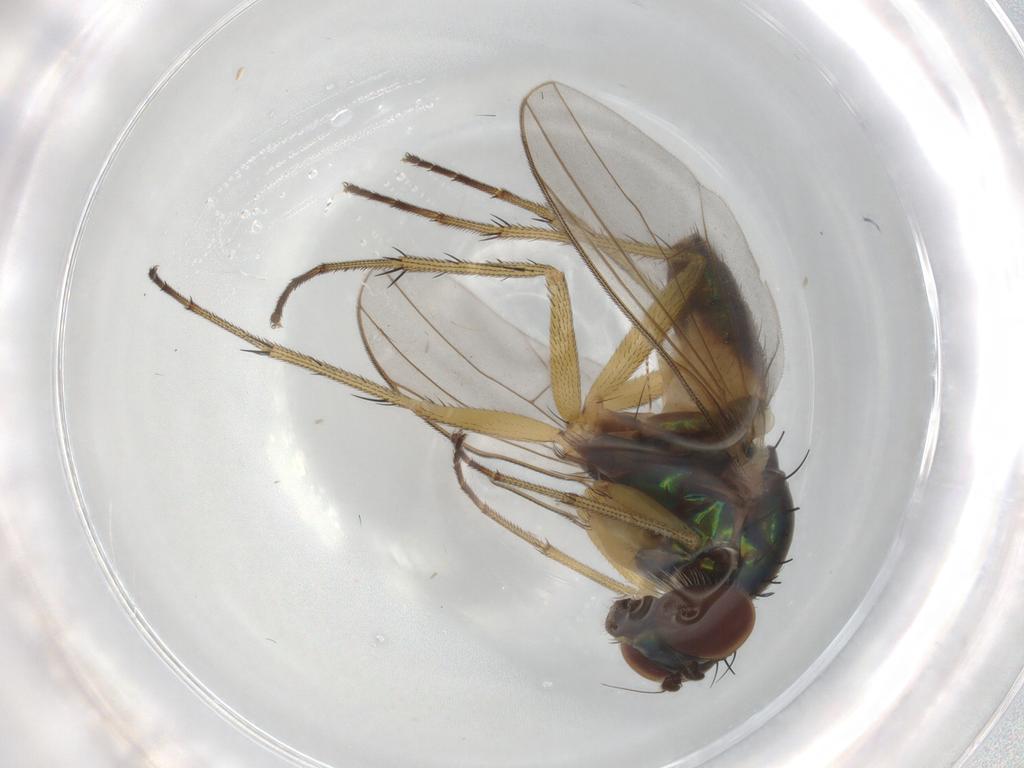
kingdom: Animalia
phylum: Arthropoda
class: Insecta
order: Diptera
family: Dolichopodidae
